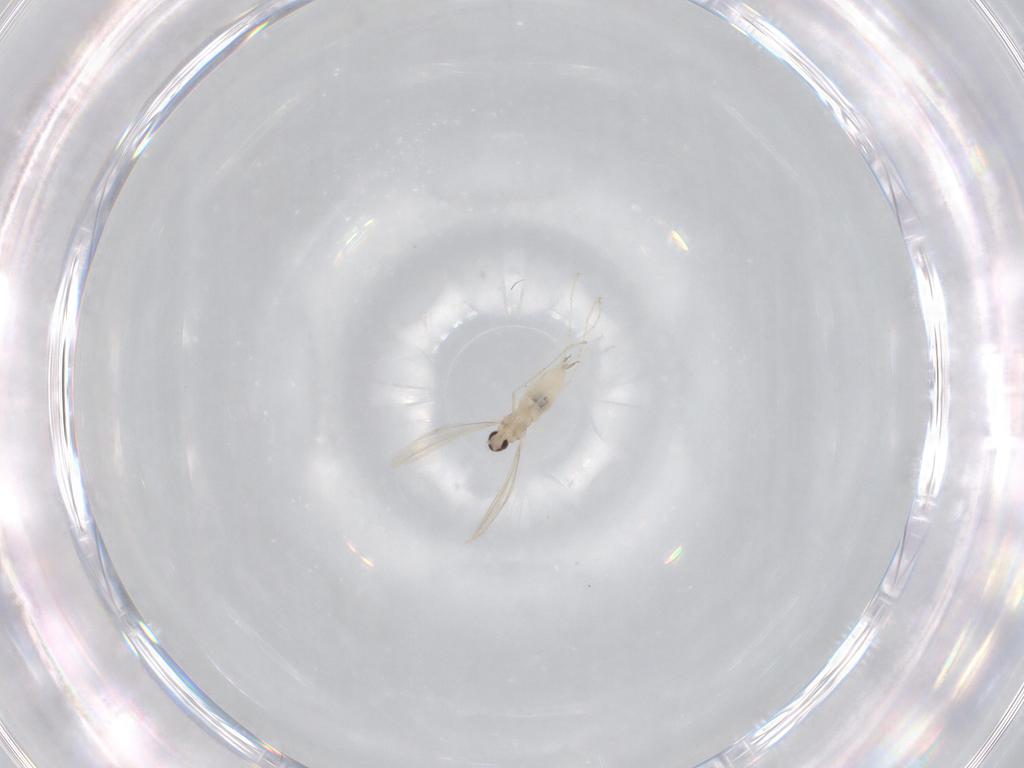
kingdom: Animalia
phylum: Arthropoda
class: Insecta
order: Diptera
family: Cecidomyiidae
